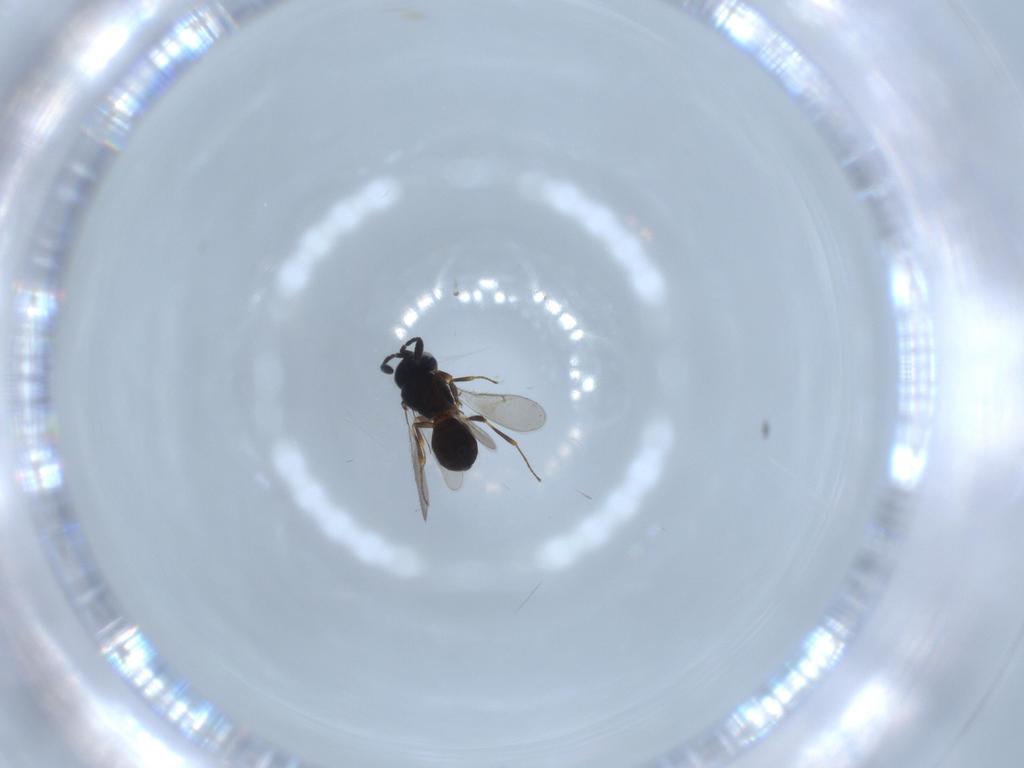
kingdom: Animalia
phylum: Arthropoda
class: Insecta
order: Hymenoptera
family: Scelionidae
